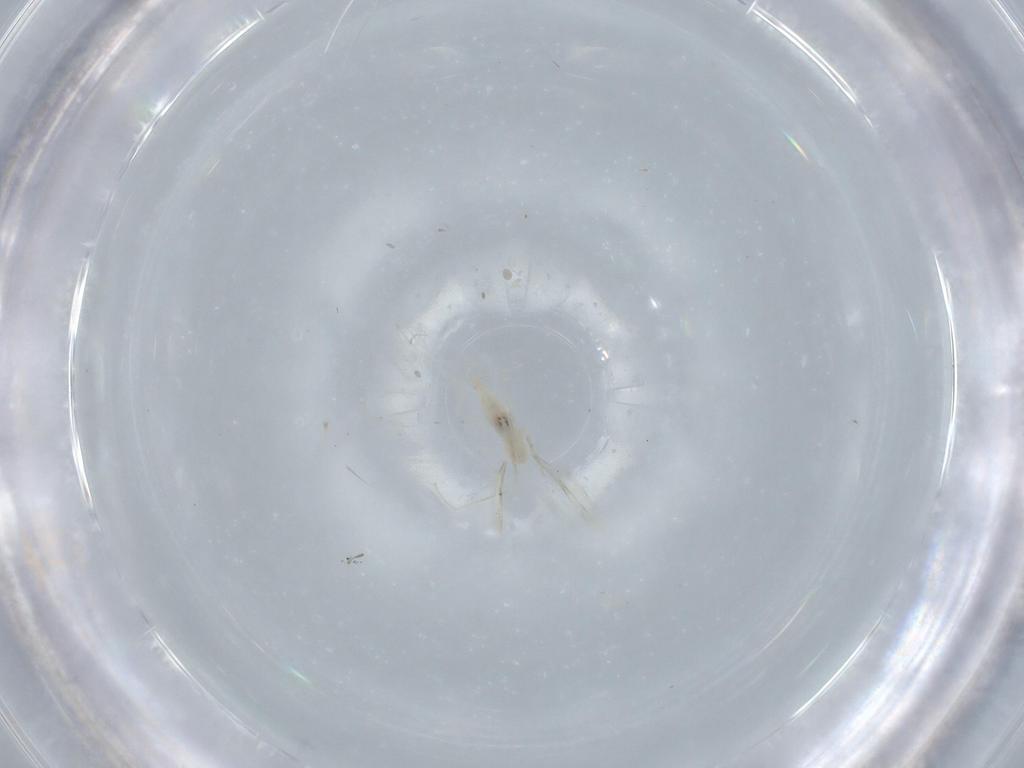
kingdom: Animalia
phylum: Arthropoda
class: Insecta
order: Diptera
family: Cecidomyiidae
